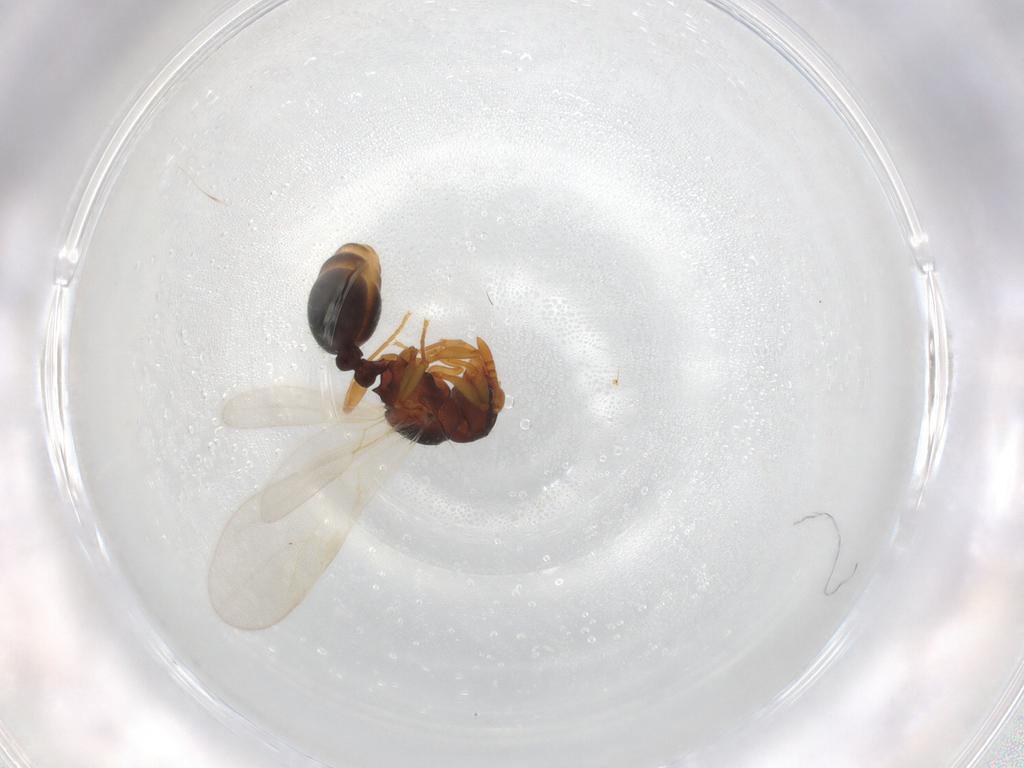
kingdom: Animalia
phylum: Arthropoda
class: Insecta
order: Hymenoptera
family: Formicidae
